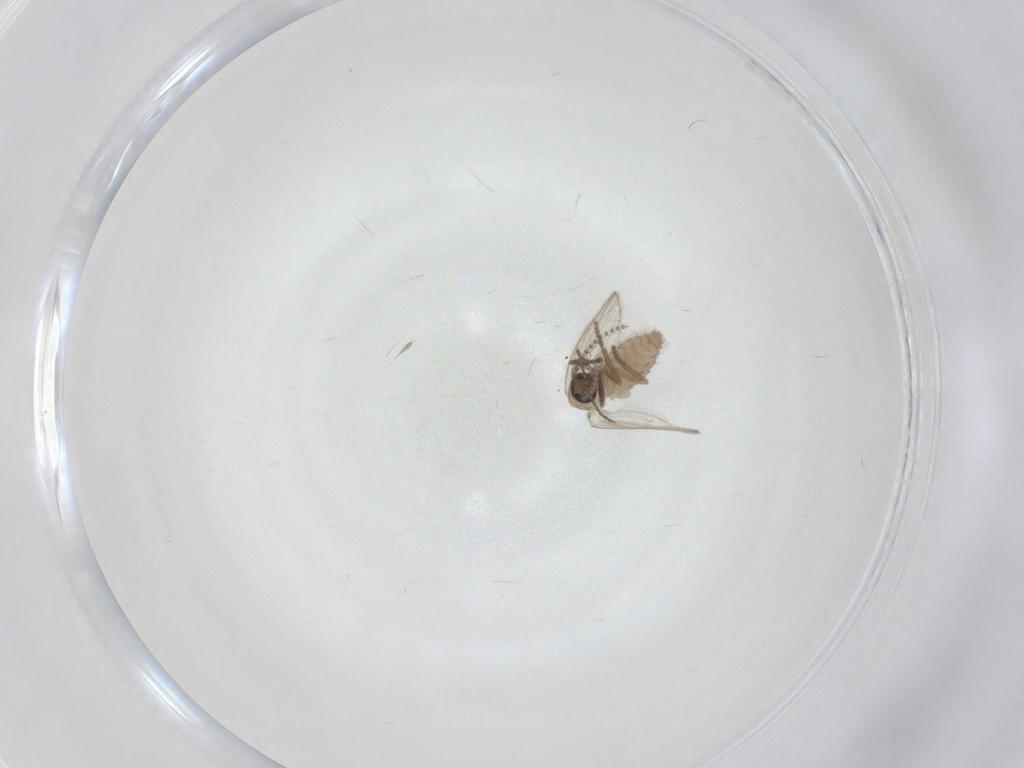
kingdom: Animalia
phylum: Arthropoda
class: Insecta
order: Diptera
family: Psychodidae
